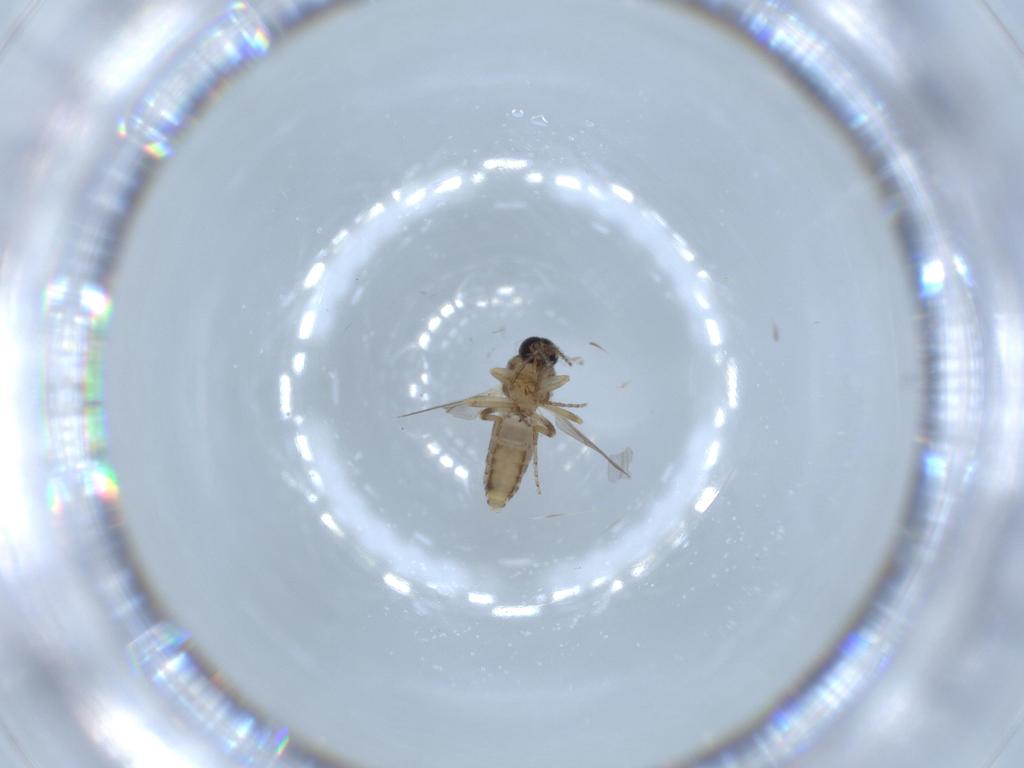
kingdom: Animalia
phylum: Arthropoda
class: Insecta
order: Diptera
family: Ceratopogonidae
